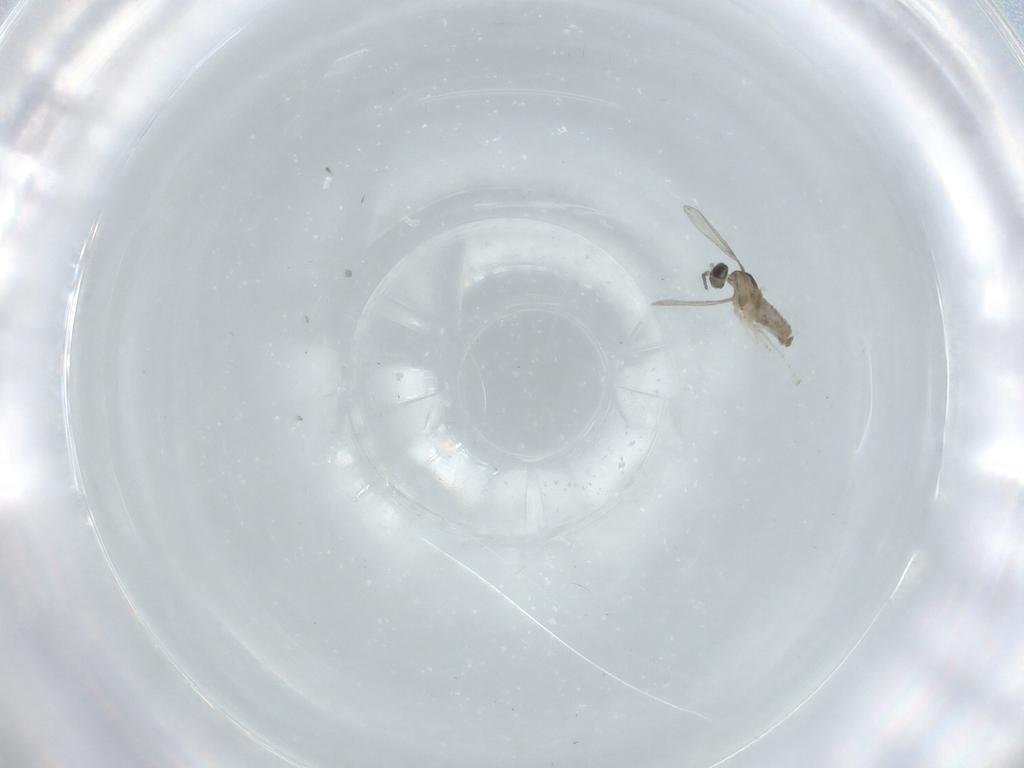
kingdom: Animalia
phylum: Arthropoda
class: Insecta
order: Diptera
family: Cecidomyiidae
